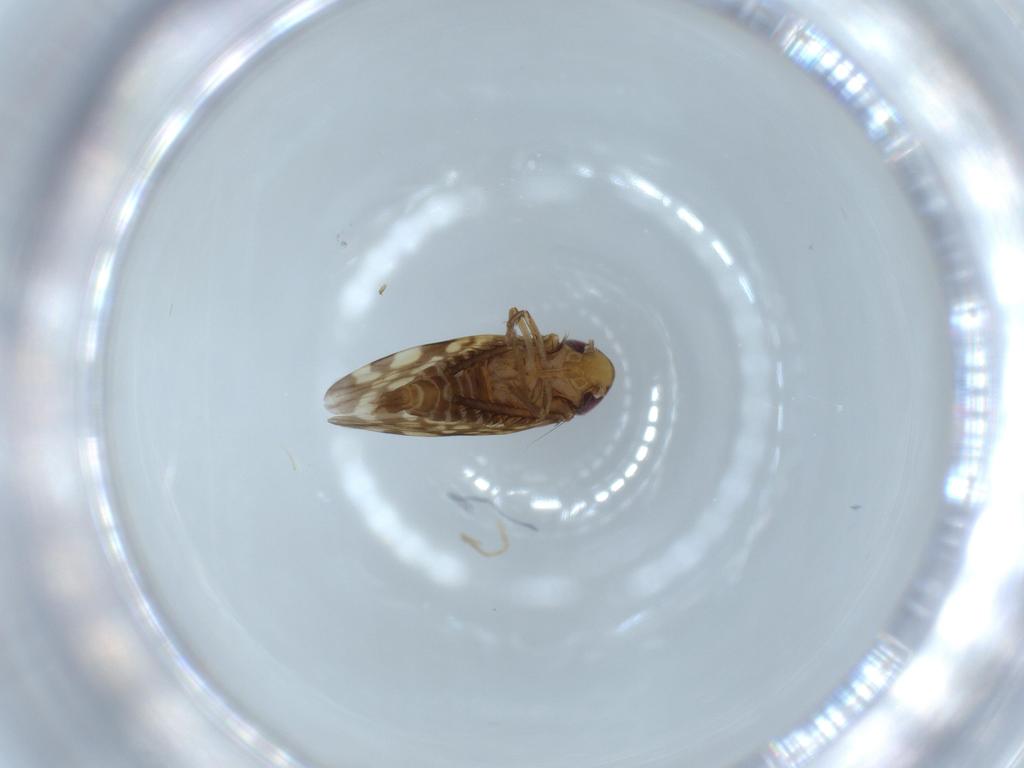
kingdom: Animalia
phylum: Arthropoda
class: Insecta
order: Hemiptera
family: Cicadellidae
